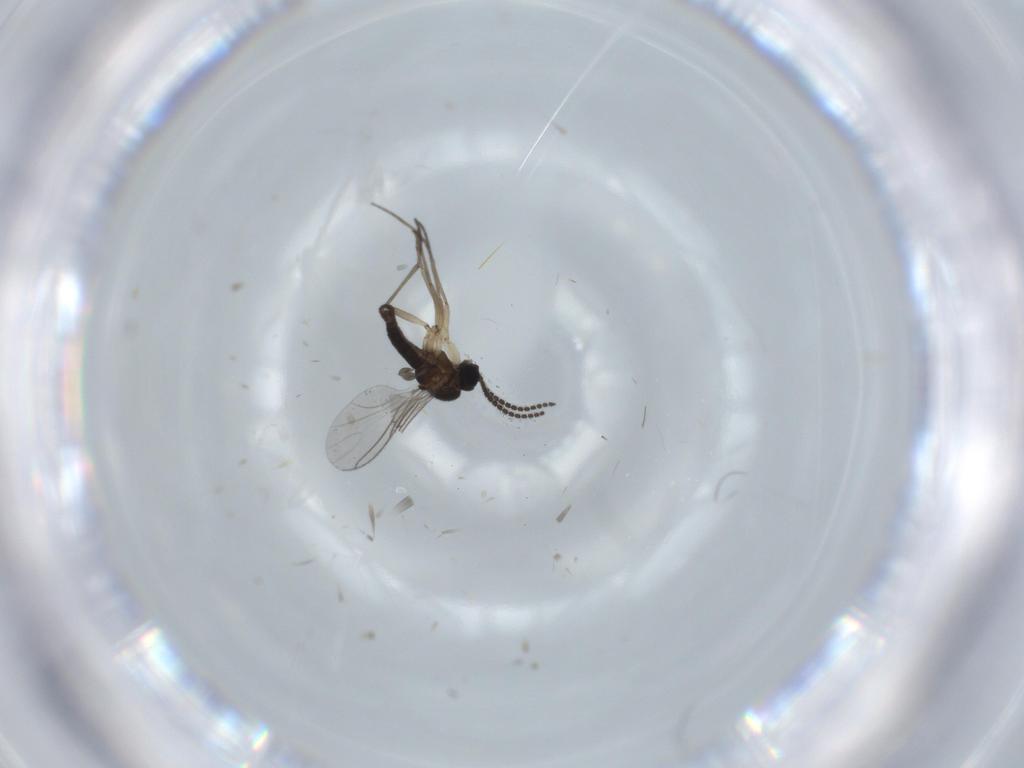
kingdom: Animalia
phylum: Arthropoda
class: Insecta
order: Diptera
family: Sciaridae
